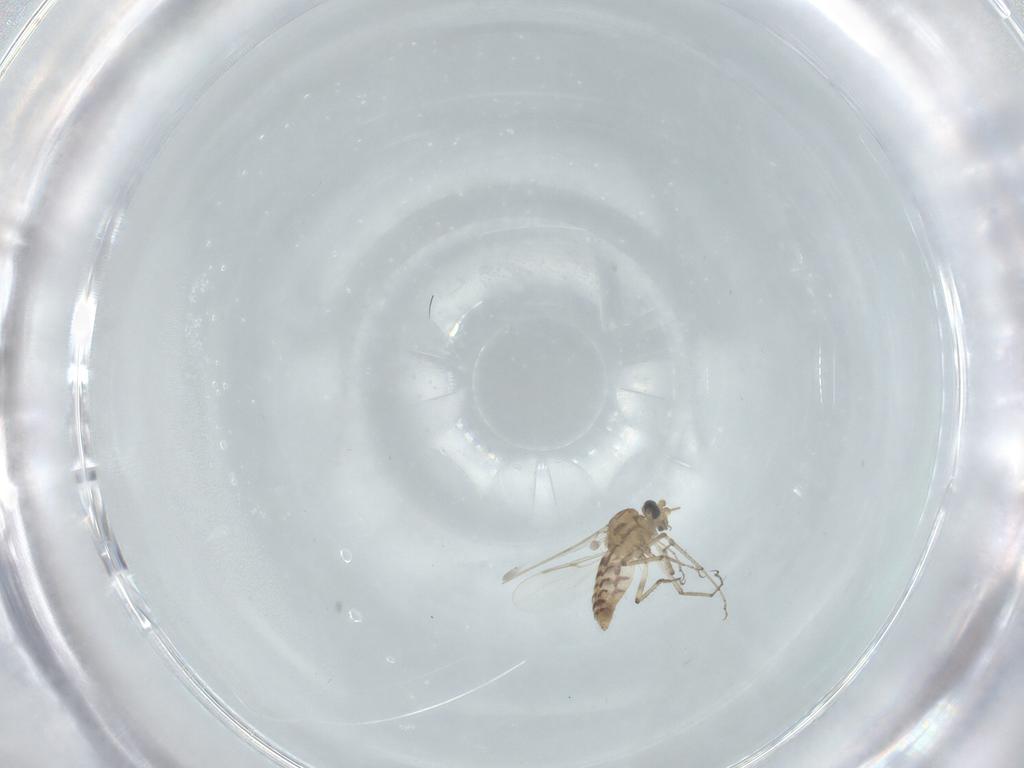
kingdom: Animalia
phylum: Arthropoda
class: Insecta
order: Diptera
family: Ceratopogonidae
